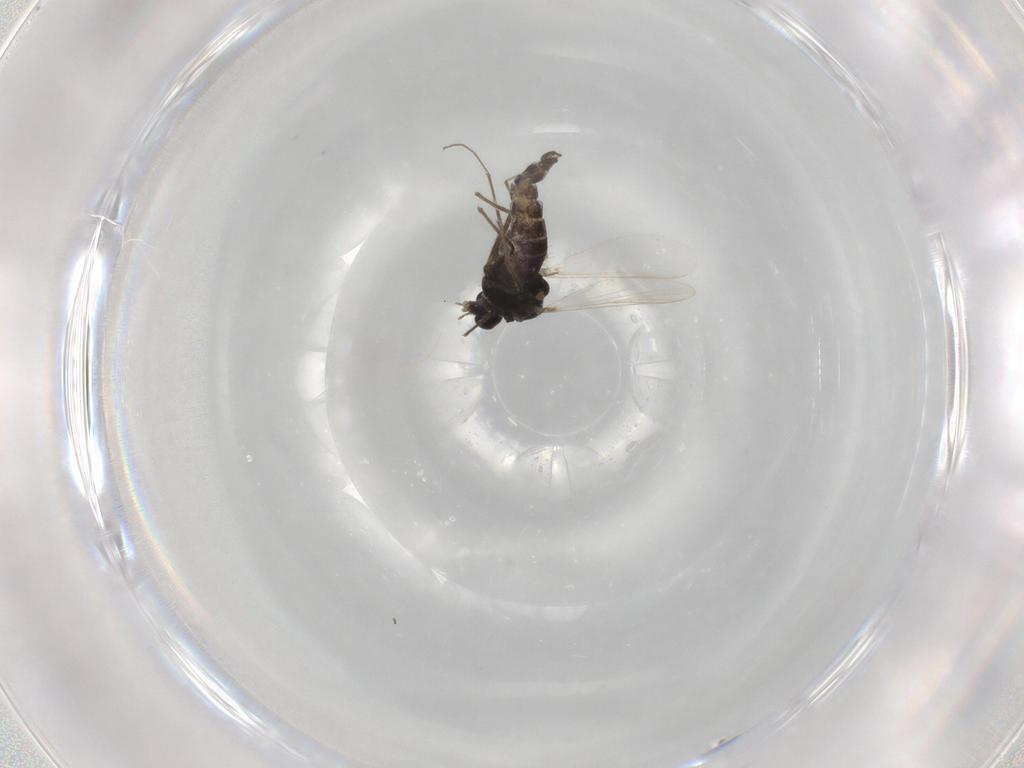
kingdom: Animalia
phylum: Arthropoda
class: Insecta
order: Diptera
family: Chironomidae
